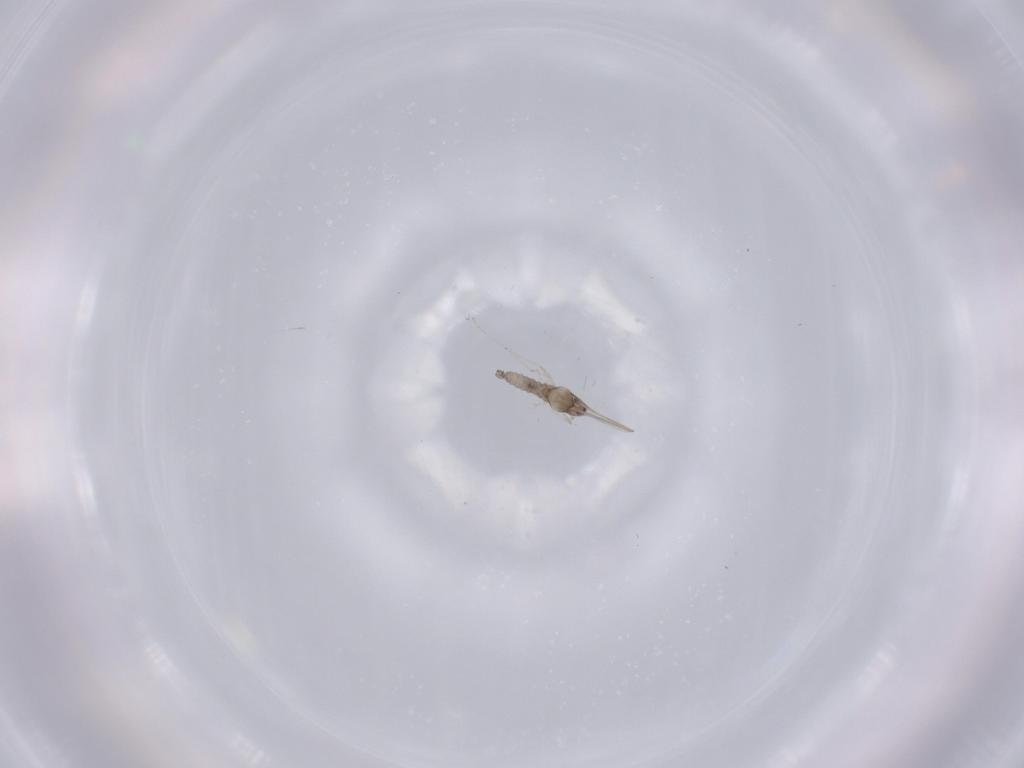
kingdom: Animalia
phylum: Arthropoda
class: Insecta
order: Diptera
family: Cecidomyiidae
